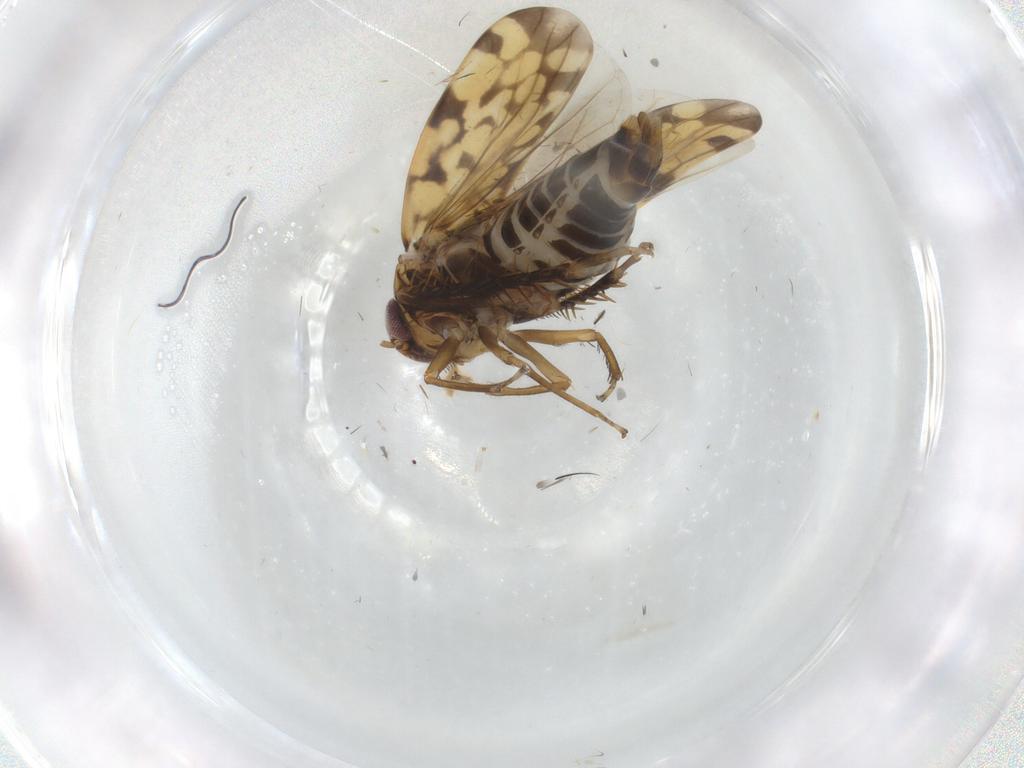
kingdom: Animalia
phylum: Arthropoda
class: Insecta
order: Hemiptera
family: Cicadellidae
